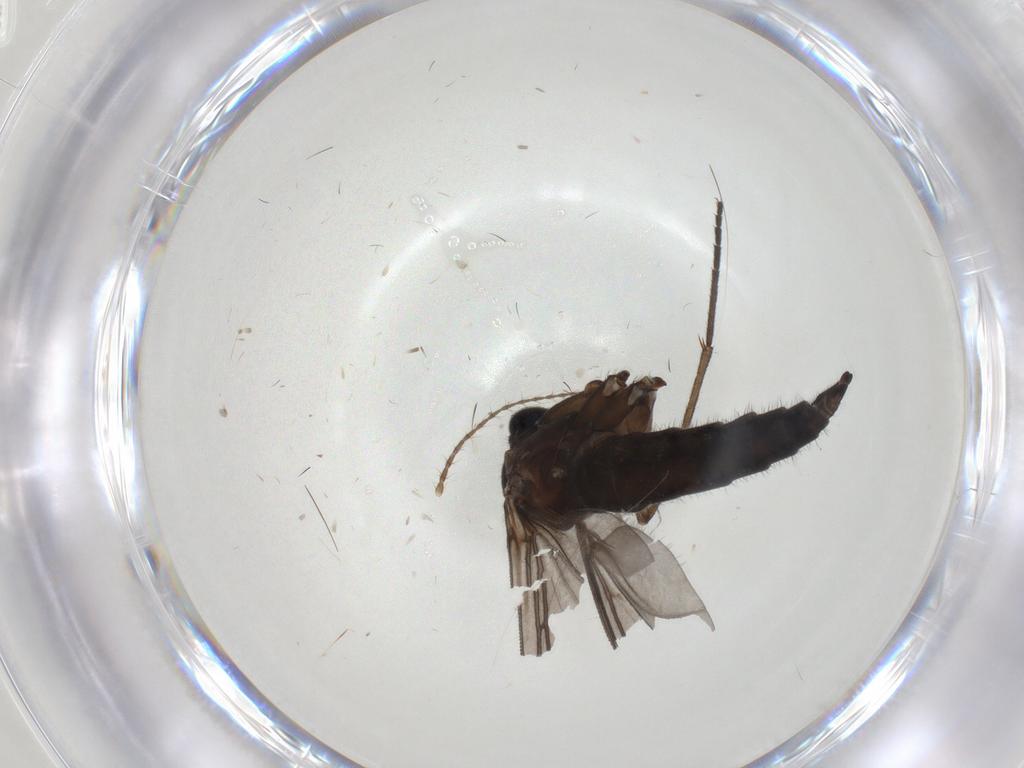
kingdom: Animalia
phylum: Arthropoda
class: Insecta
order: Diptera
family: Sciaridae
